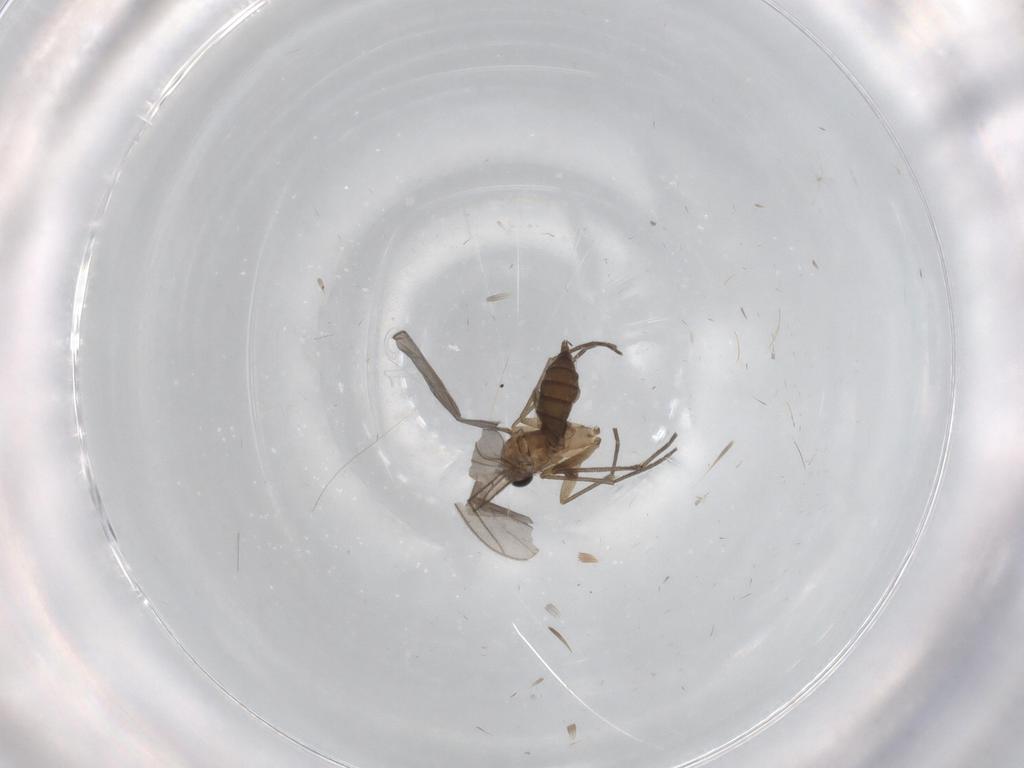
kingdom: Animalia
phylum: Arthropoda
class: Insecta
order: Diptera
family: Sciaridae
